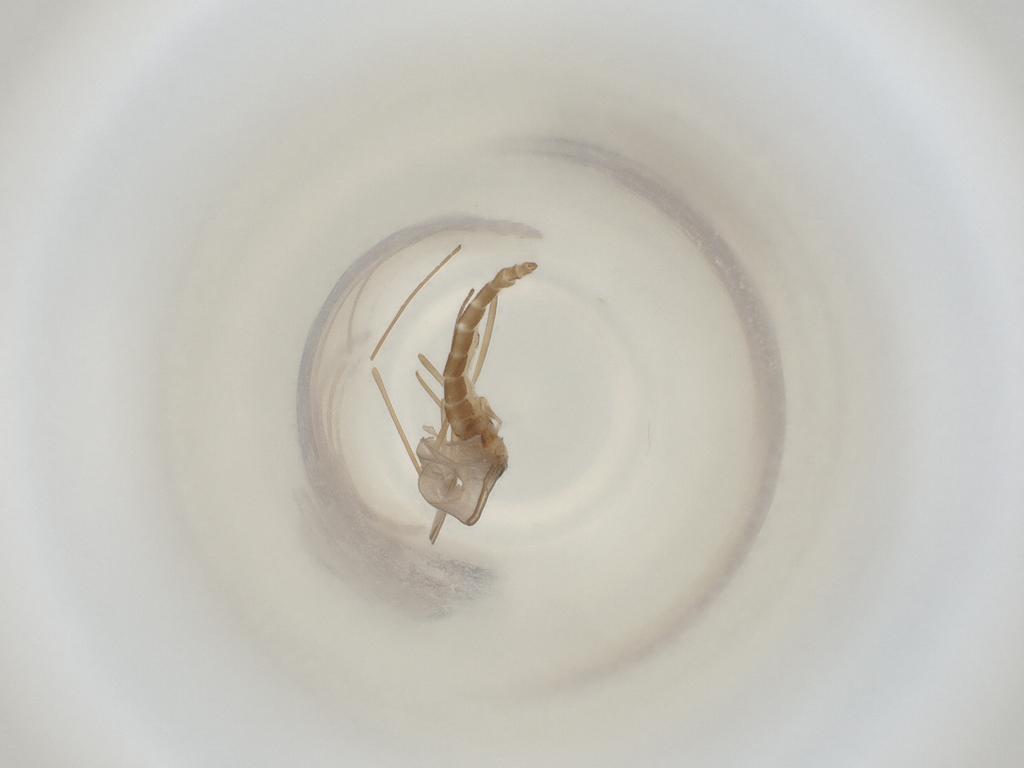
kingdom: Animalia
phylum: Arthropoda
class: Insecta
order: Diptera
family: Cecidomyiidae
